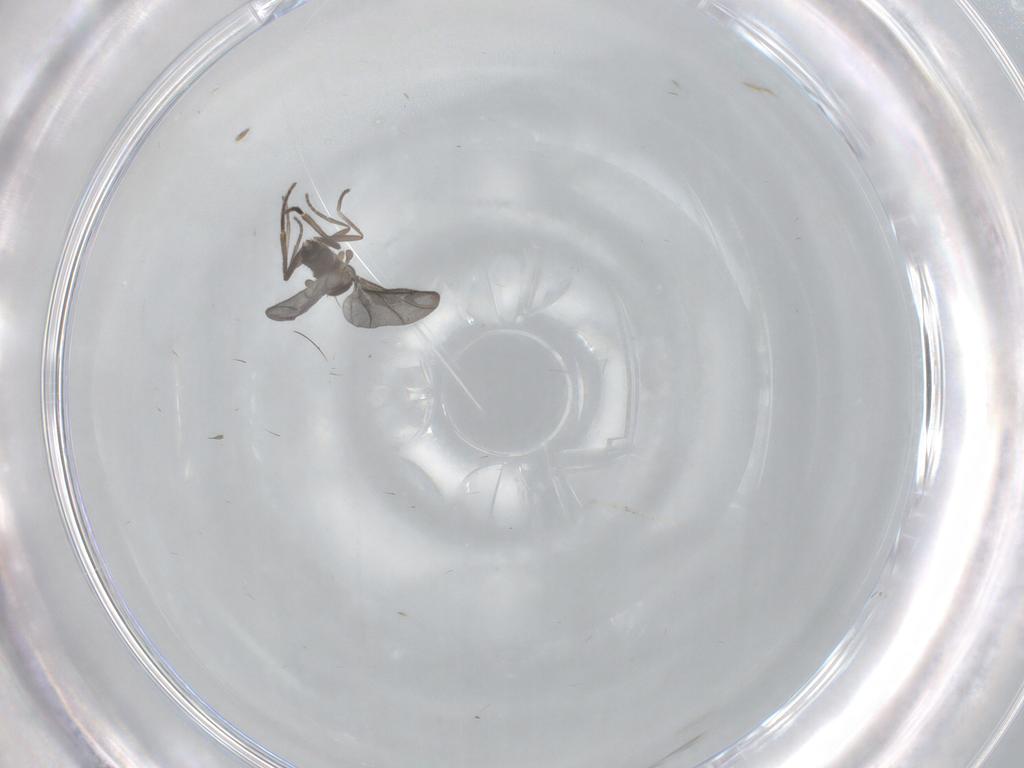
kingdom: Animalia
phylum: Arthropoda
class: Insecta
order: Diptera
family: Phoridae
